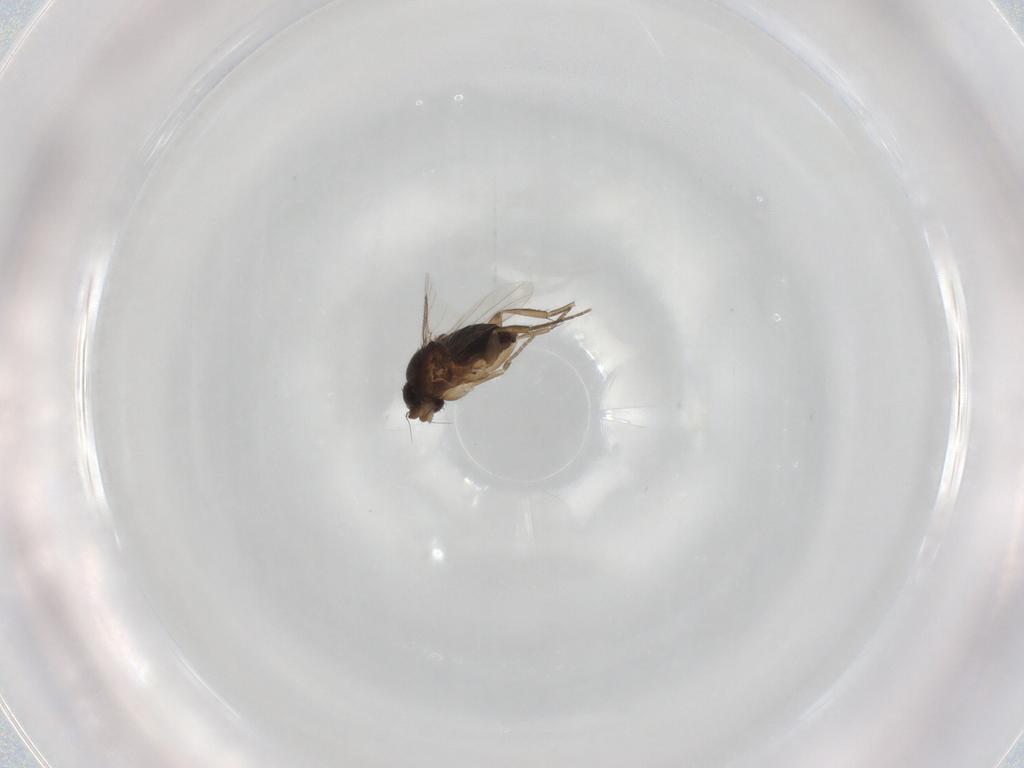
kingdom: Animalia
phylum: Arthropoda
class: Insecta
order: Diptera
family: Phoridae
